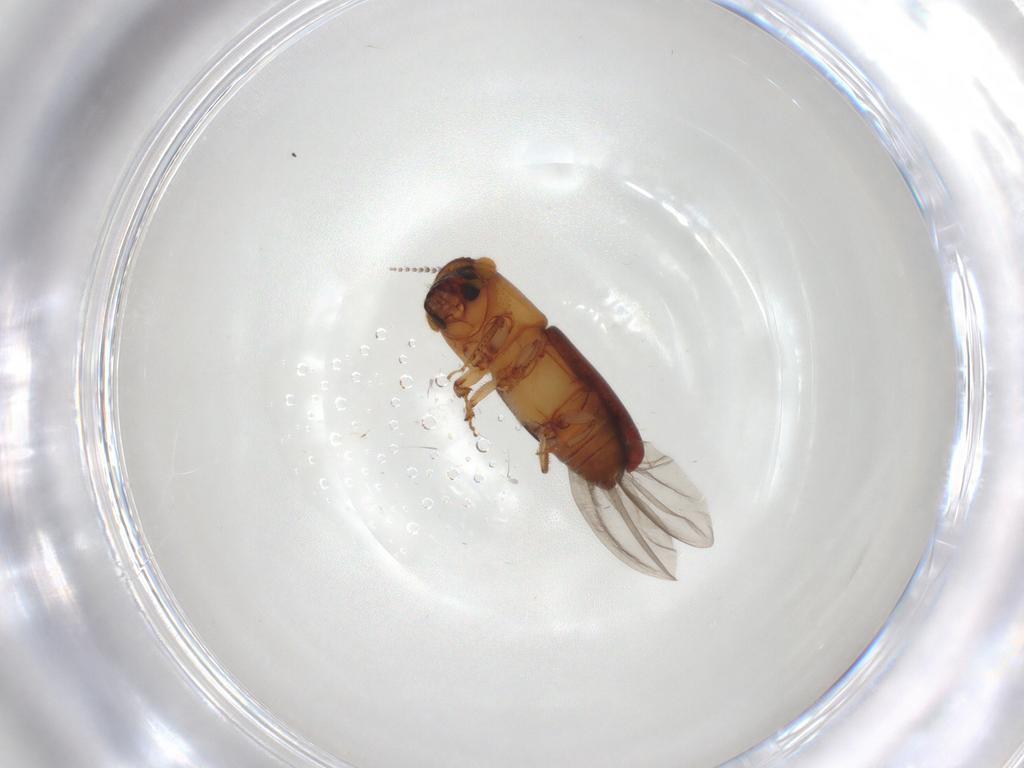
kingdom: Animalia
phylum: Arthropoda
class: Insecta
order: Coleoptera
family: Curculionidae
